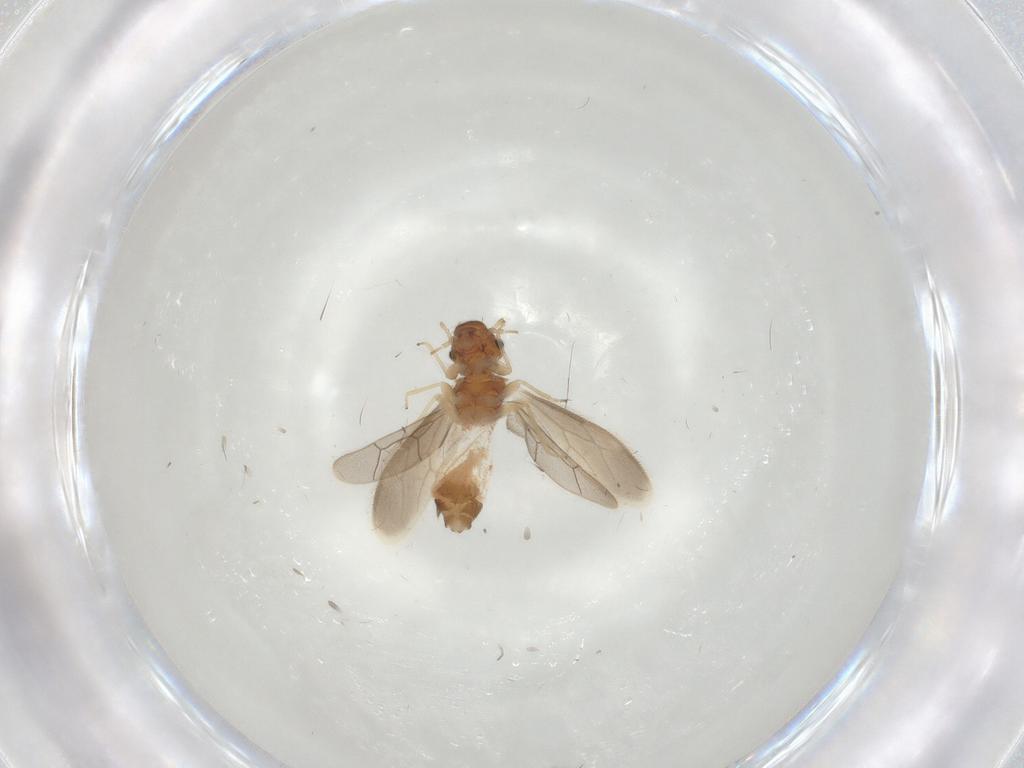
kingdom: Animalia
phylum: Arthropoda
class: Insecta
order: Psocodea
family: Archipsocidae
